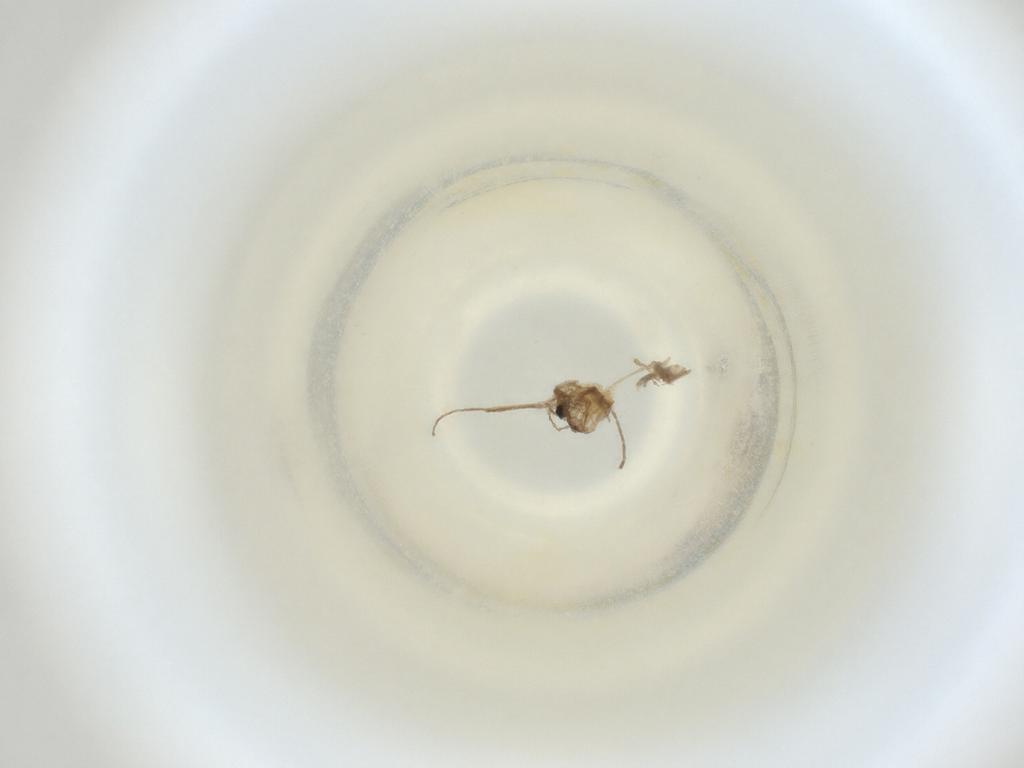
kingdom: Animalia
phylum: Arthropoda
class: Insecta
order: Diptera
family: Cecidomyiidae
